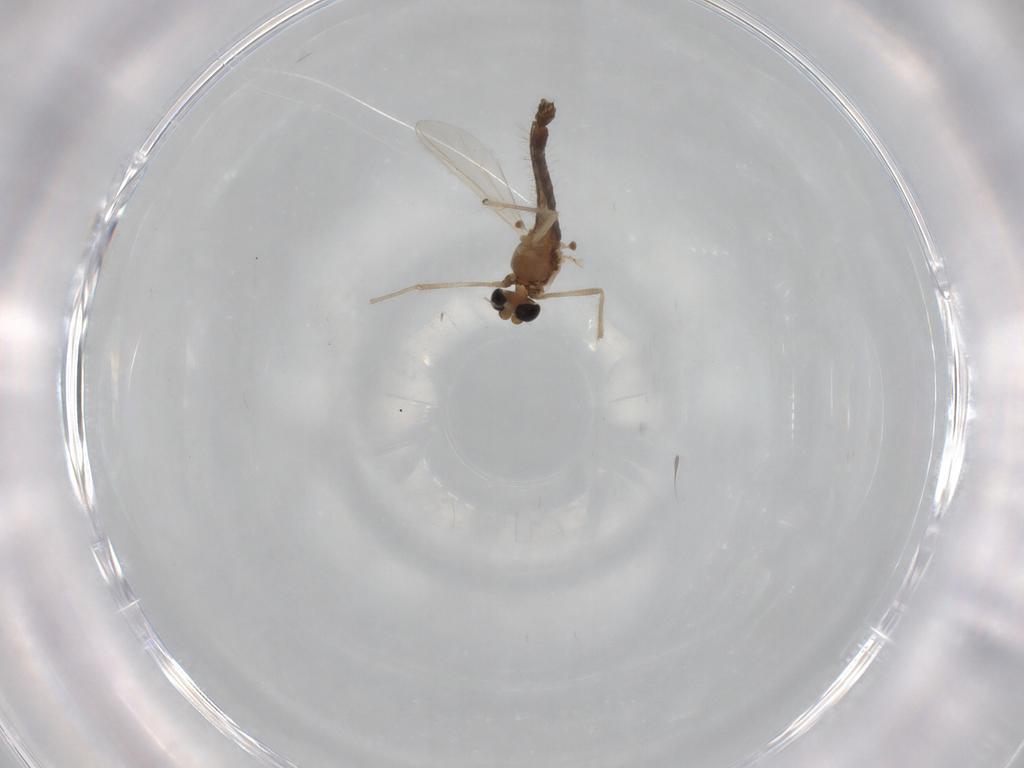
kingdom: Animalia
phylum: Arthropoda
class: Insecta
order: Diptera
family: Chironomidae
